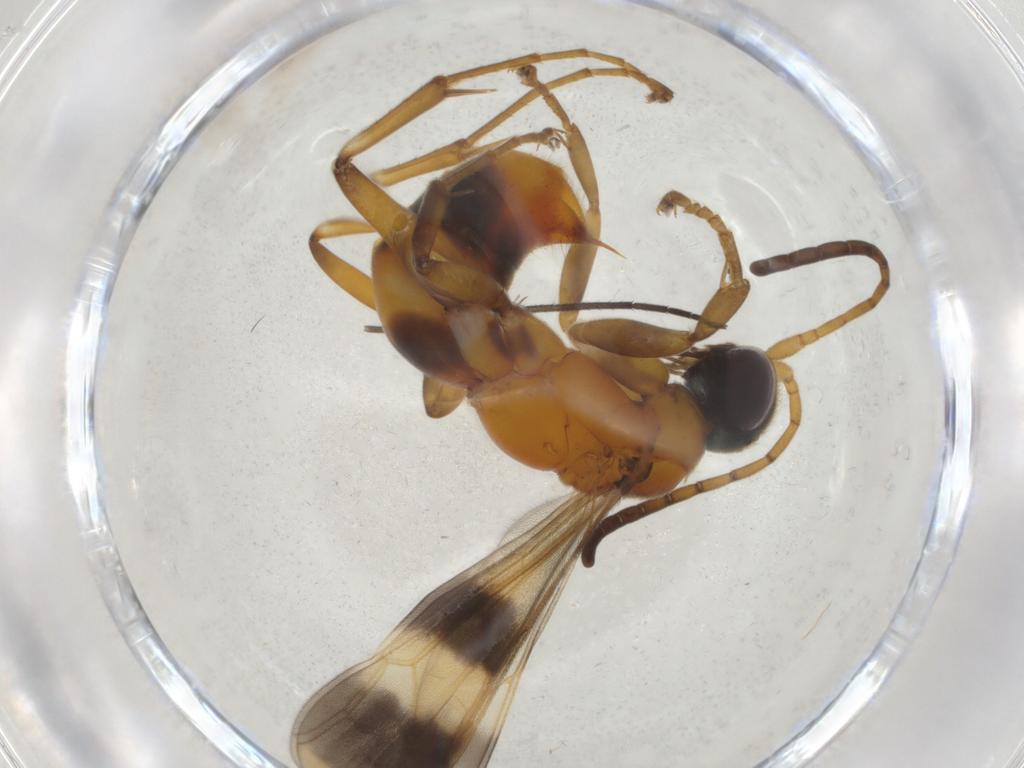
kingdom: Animalia
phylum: Arthropoda
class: Insecta
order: Hymenoptera
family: Pompilidae
